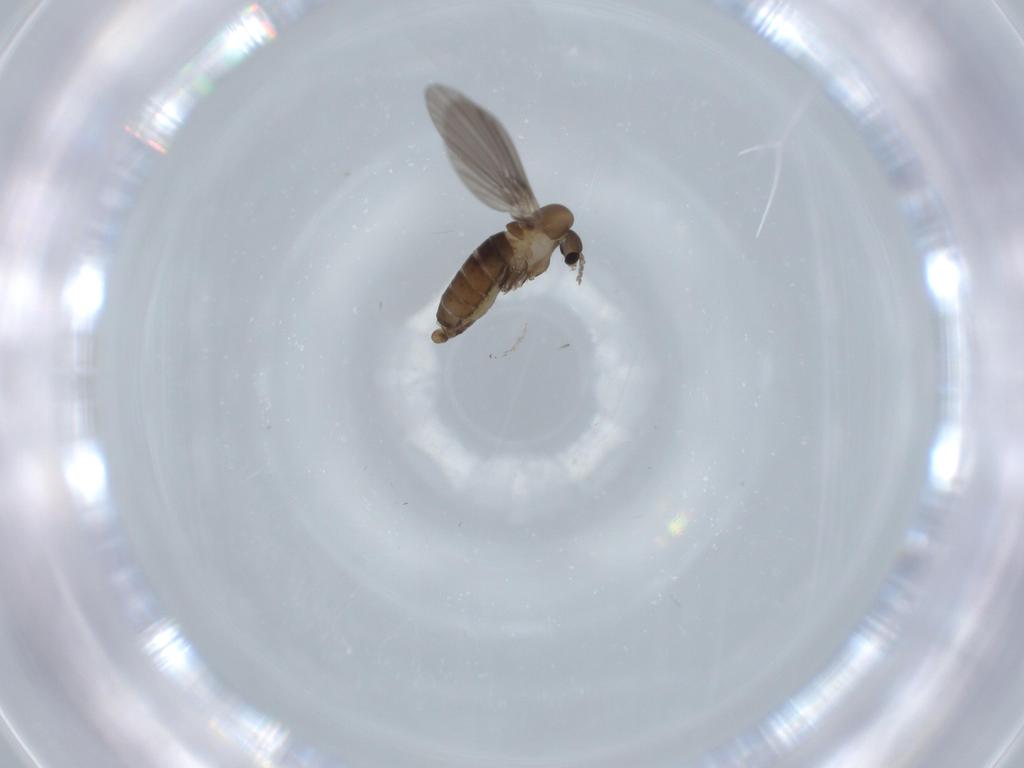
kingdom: Animalia
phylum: Arthropoda
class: Insecta
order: Diptera
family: Psychodidae
